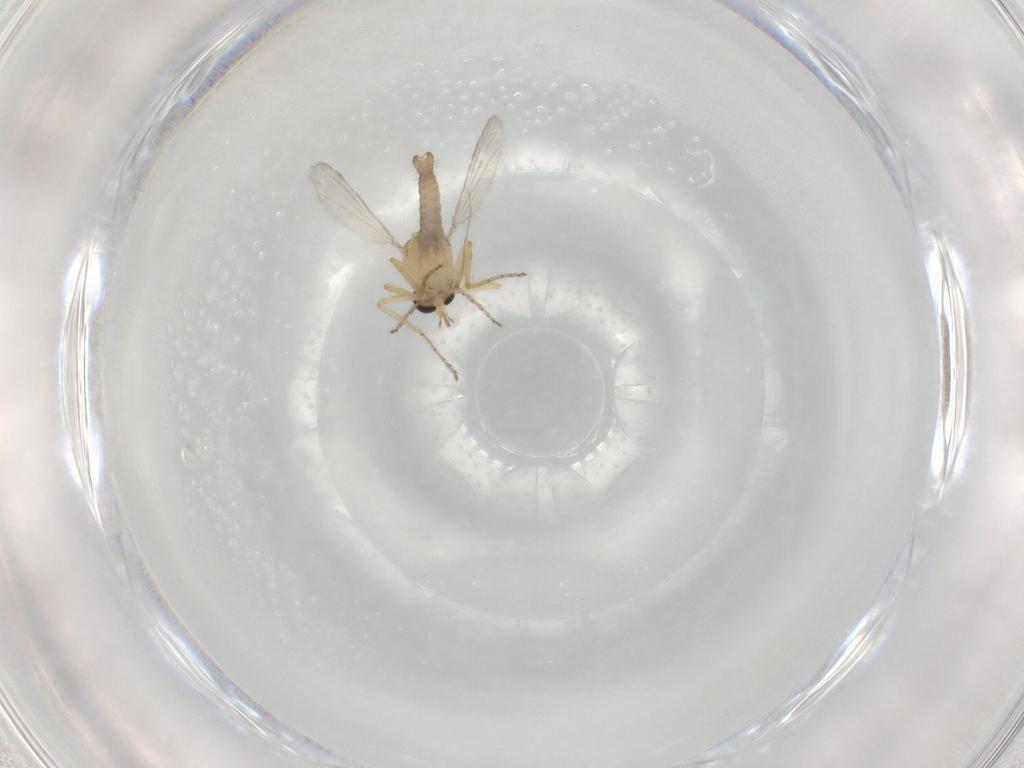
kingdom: Animalia
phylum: Arthropoda
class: Insecta
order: Diptera
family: Ceratopogonidae
